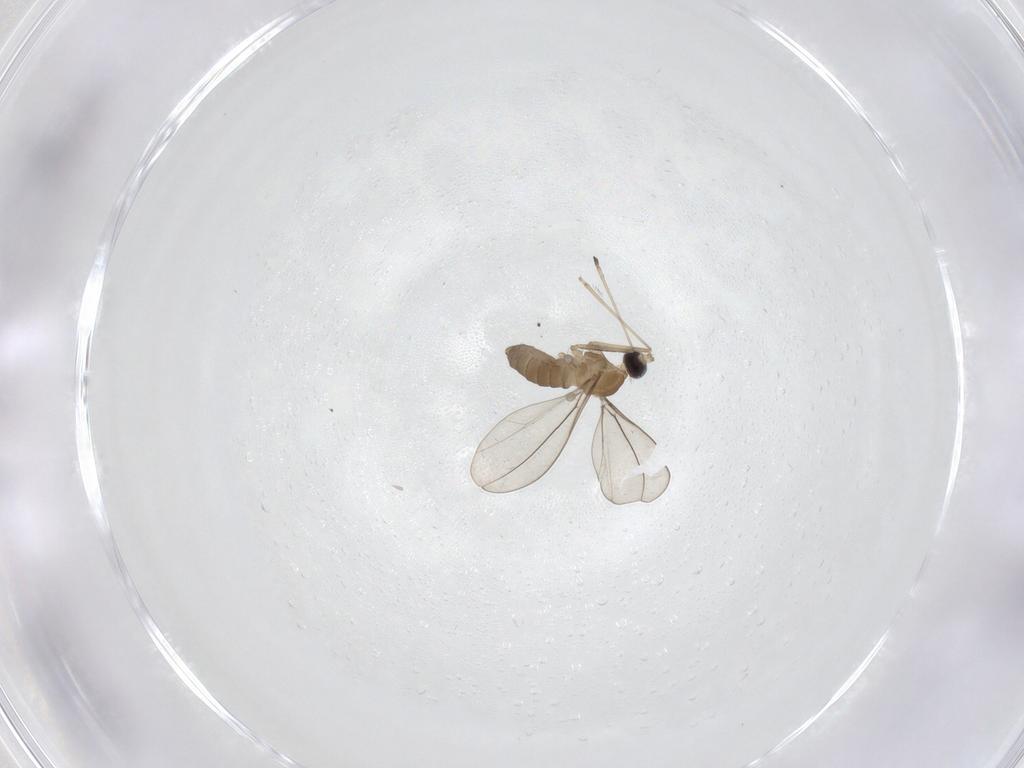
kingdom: Animalia
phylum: Arthropoda
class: Insecta
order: Diptera
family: Cecidomyiidae
